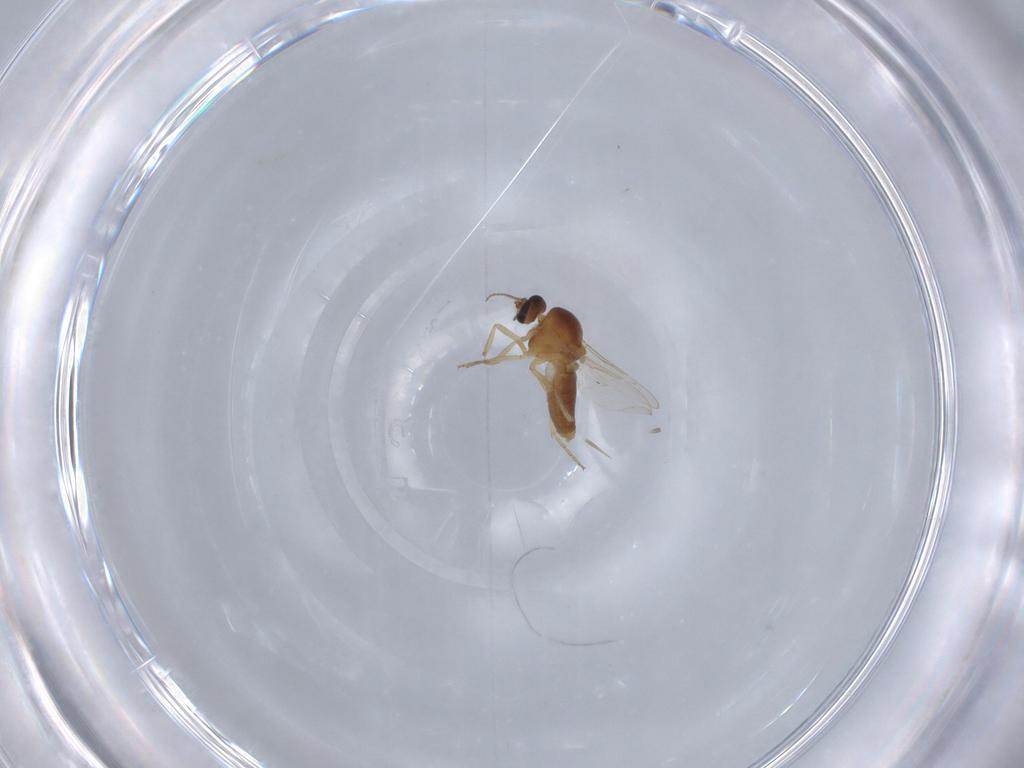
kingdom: Animalia
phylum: Arthropoda
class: Insecta
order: Diptera
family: Ceratopogonidae
